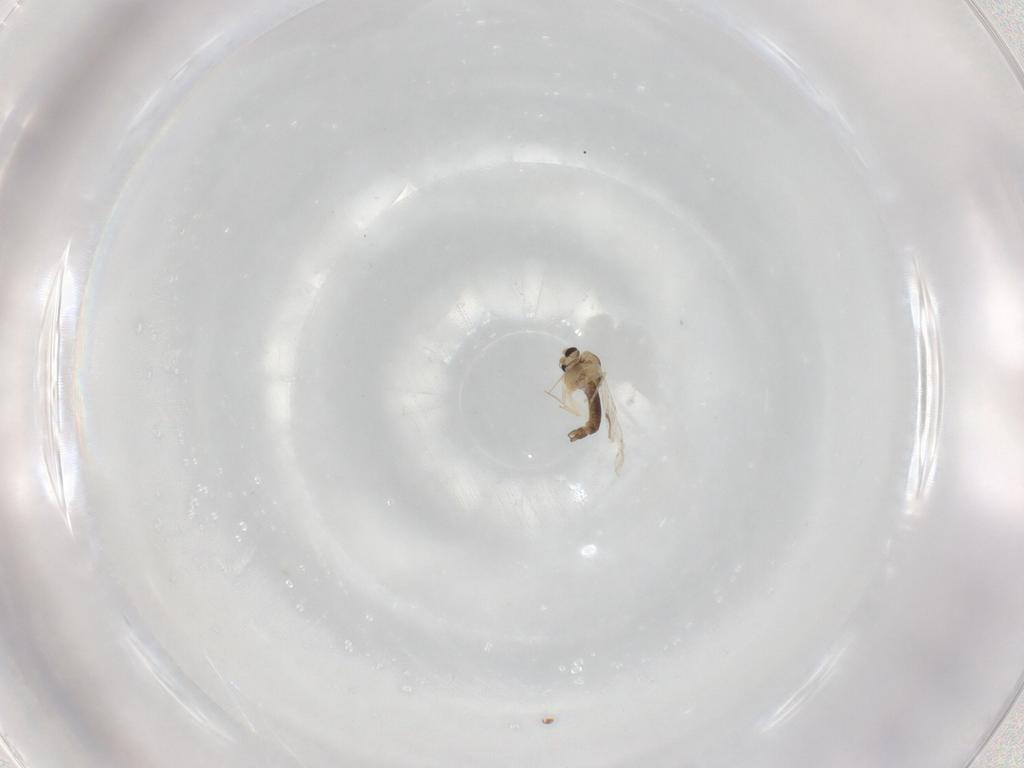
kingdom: Animalia
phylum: Arthropoda
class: Insecta
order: Diptera
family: Chironomidae
